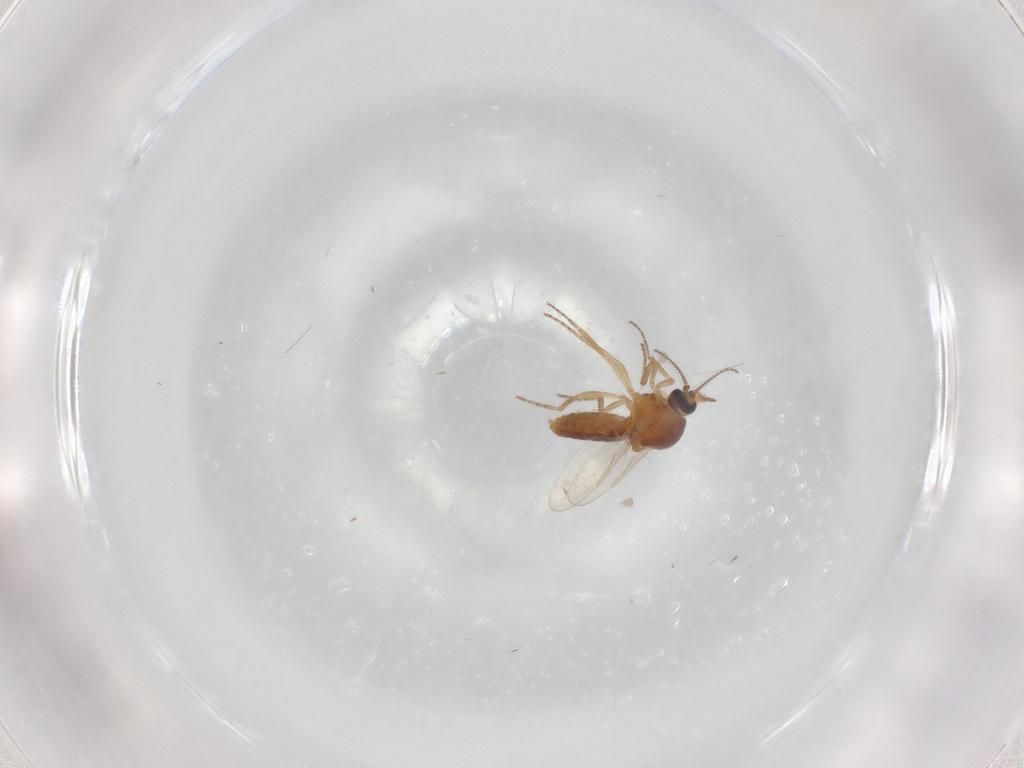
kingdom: Animalia
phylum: Arthropoda
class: Insecta
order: Diptera
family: Ceratopogonidae
